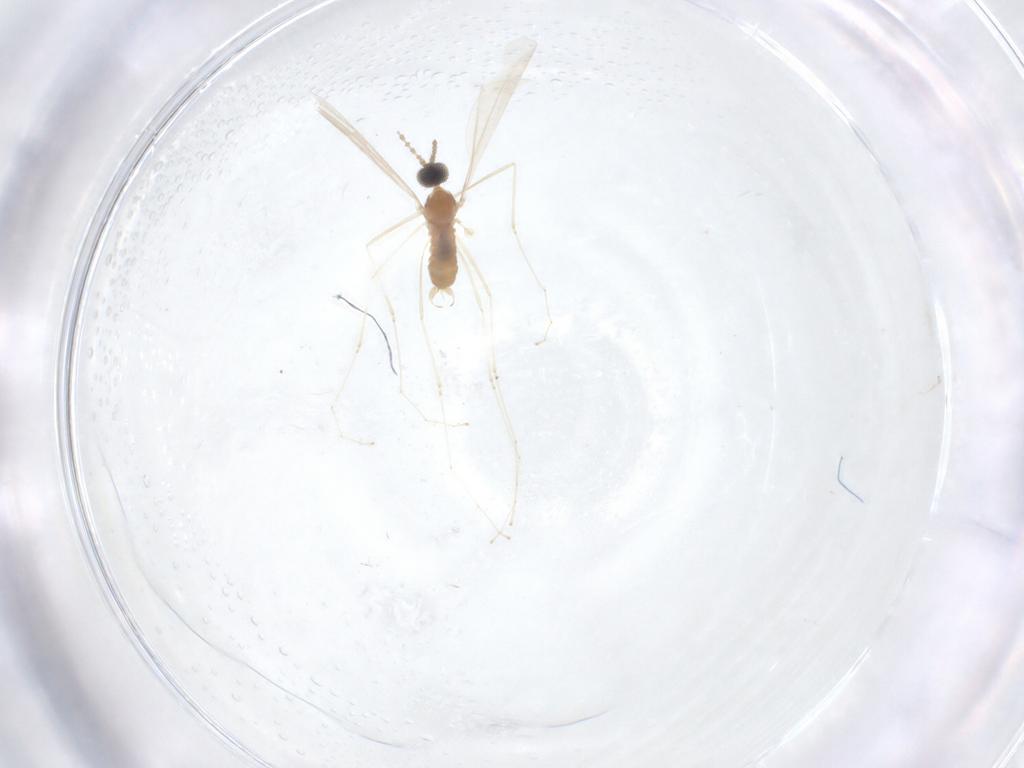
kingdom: Animalia
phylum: Arthropoda
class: Insecta
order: Diptera
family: Cecidomyiidae
